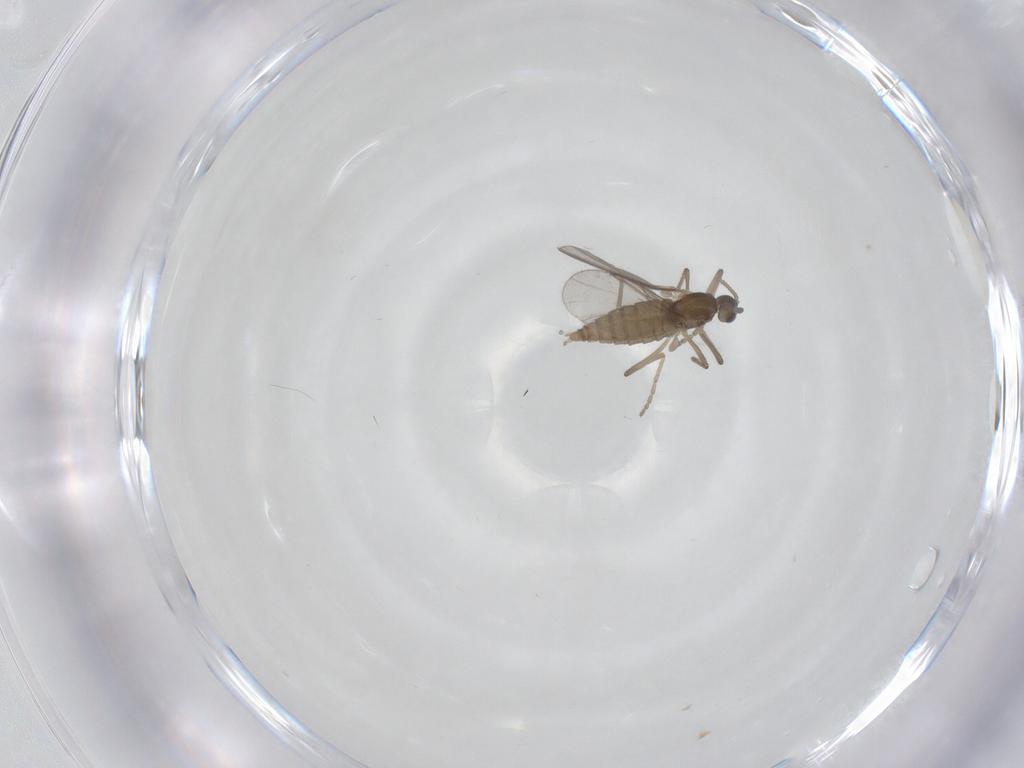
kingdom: Animalia
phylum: Arthropoda
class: Insecta
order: Diptera
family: Cecidomyiidae
